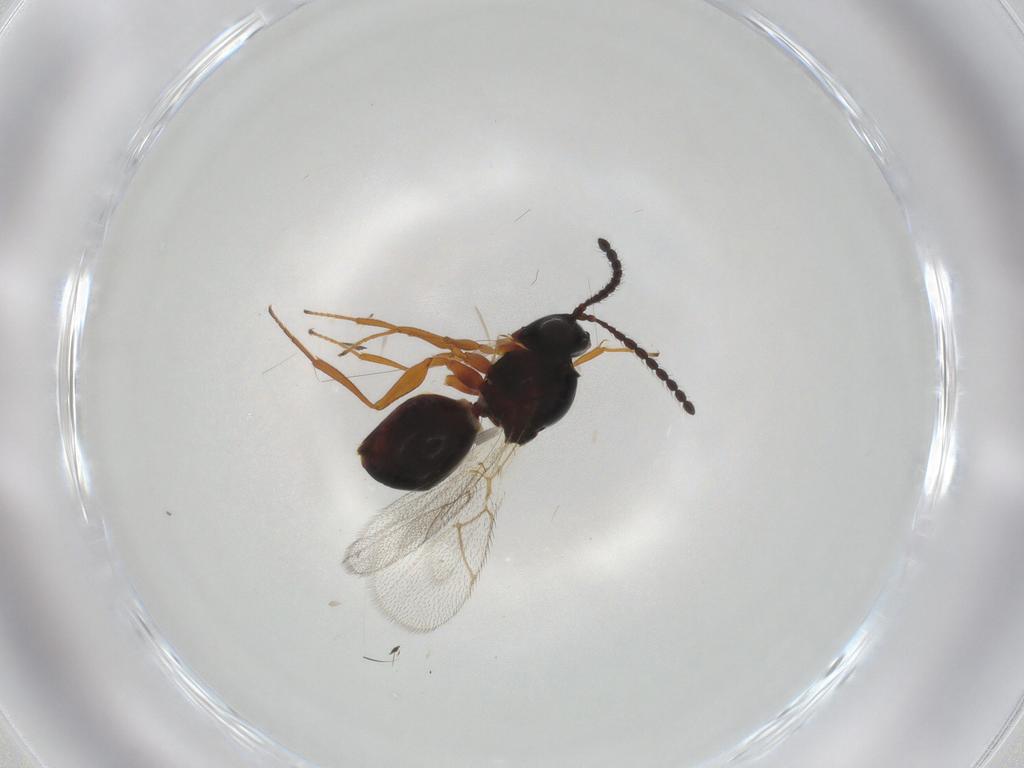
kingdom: Animalia
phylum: Arthropoda
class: Insecta
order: Hymenoptera
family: Figitidae
